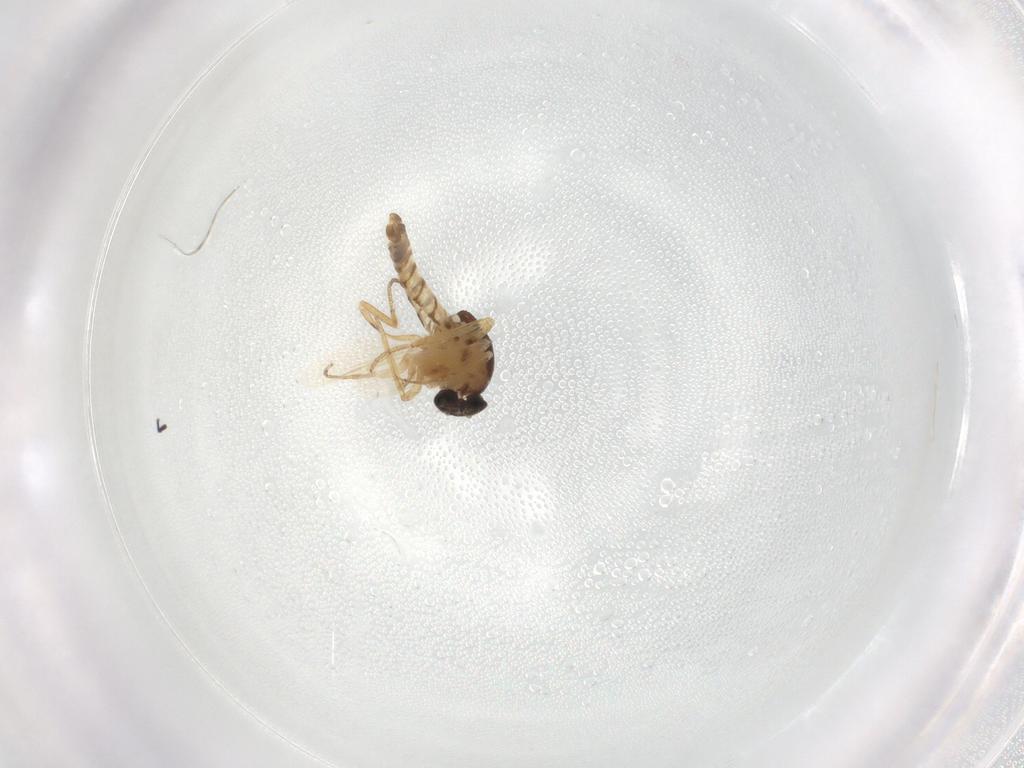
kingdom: Animalia
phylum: Arthropoda
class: Insecta
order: Diptera
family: Ceratopogonidae
